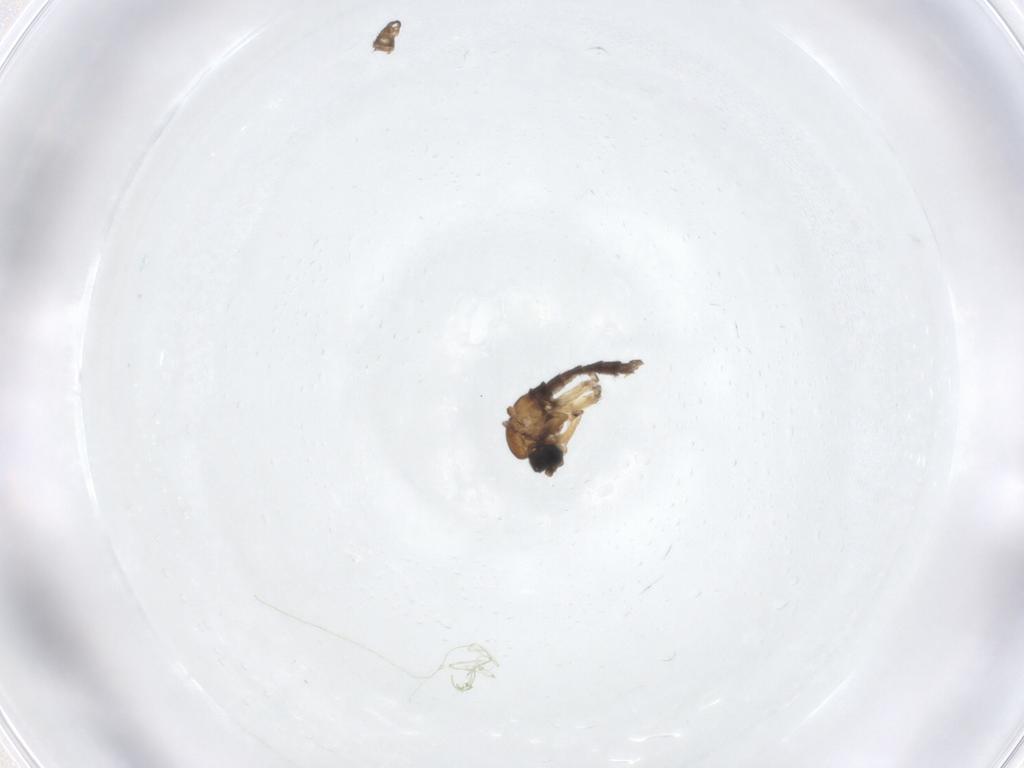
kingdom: Animalia
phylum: Arthropoda
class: Insecta
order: Diptera
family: Sciaridae
